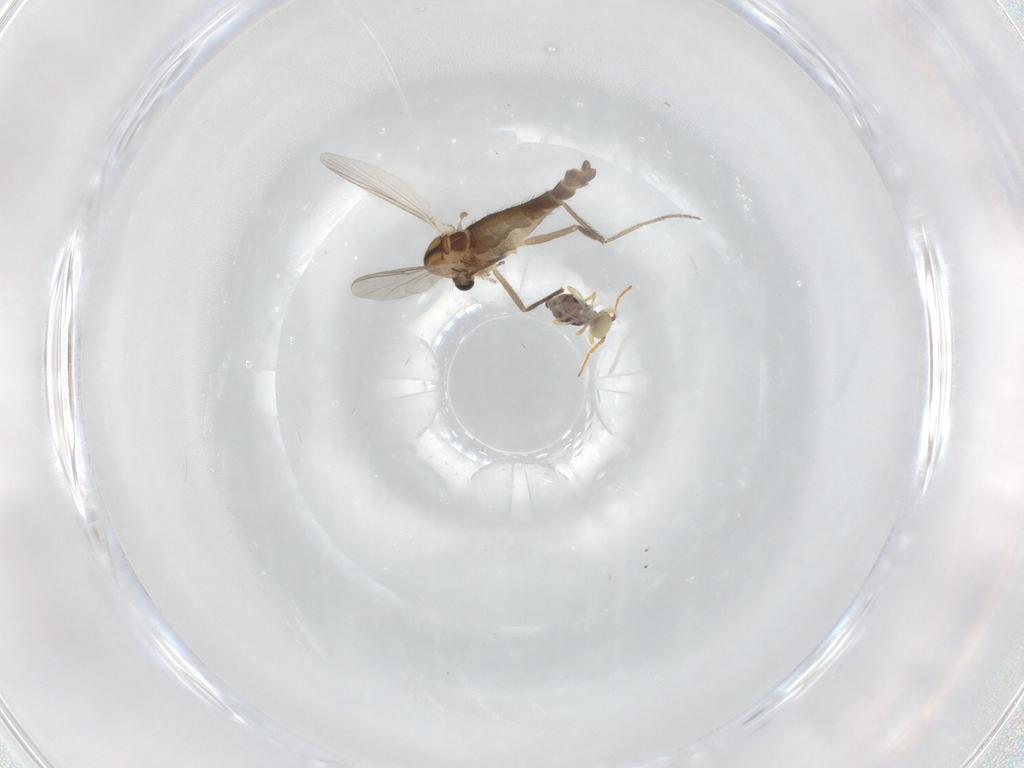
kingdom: Animalia
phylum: Arthropoda
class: Insecta
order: Diptera
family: Chironomidae
